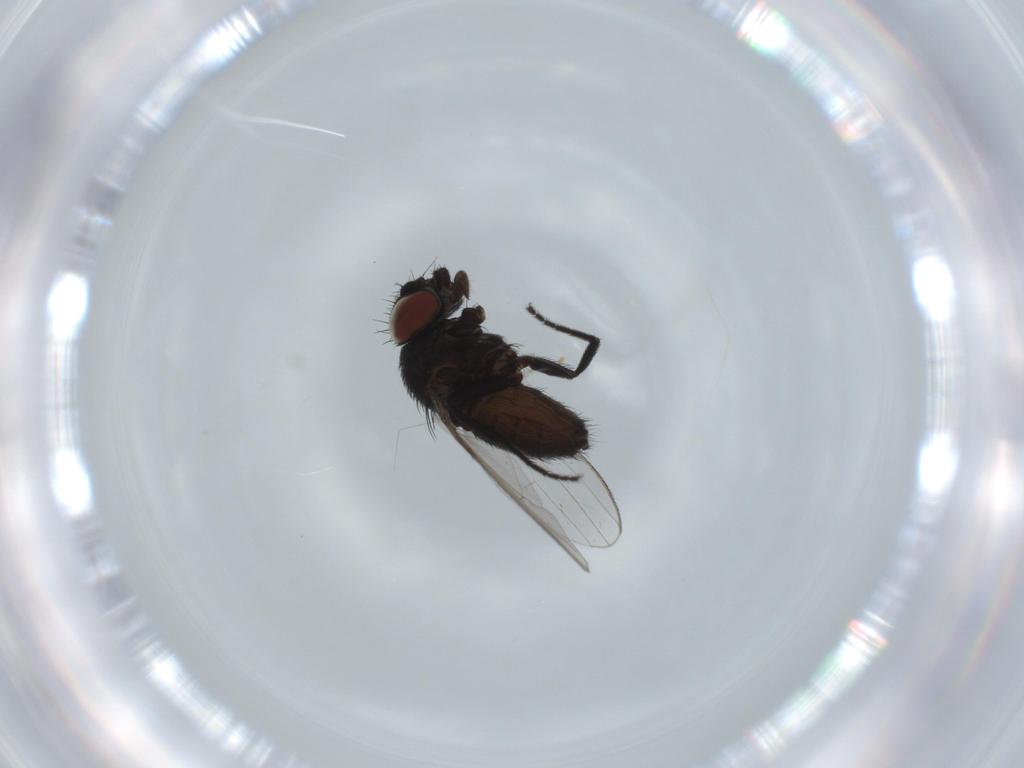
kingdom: Animalia
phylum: Arthropoda
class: Insecta
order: Diptera
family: Milichiidae
